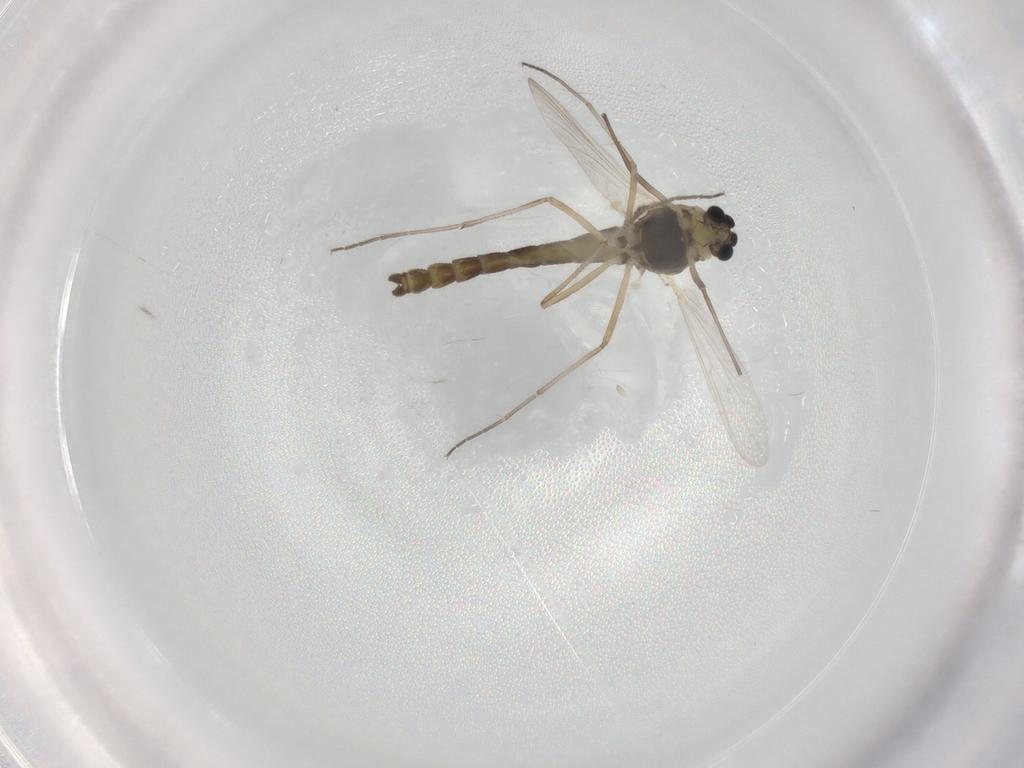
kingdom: Animalia
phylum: Arthropoda
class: Insecta
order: Diptera
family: Chironomidae
